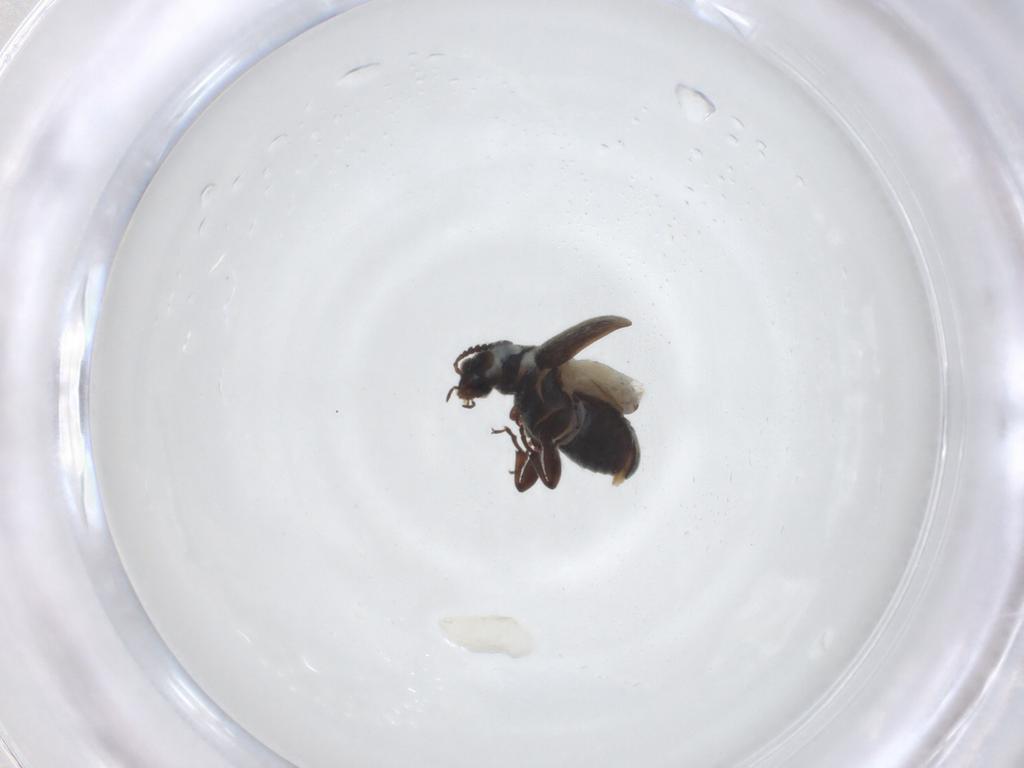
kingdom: Animalia
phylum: Arthropoda
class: Insecta
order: Coleoptera
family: Chrysomelidae
